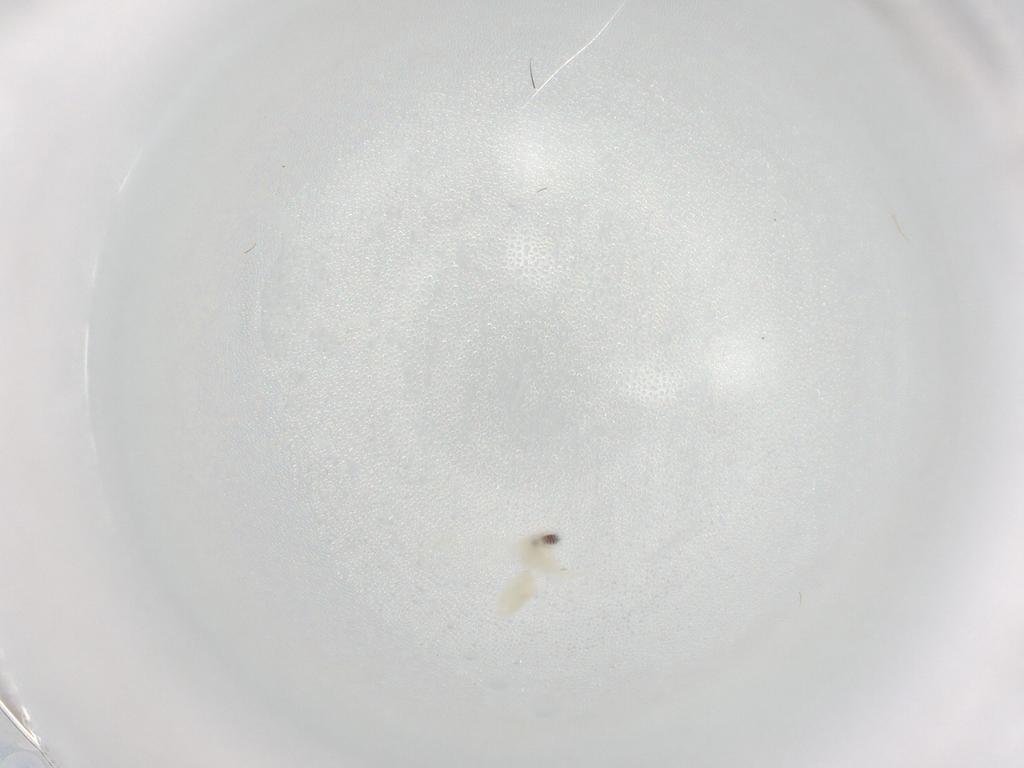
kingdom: Animalia
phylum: Arthropoda
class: Insecta
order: Hemiptera
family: Aleyrodidae
